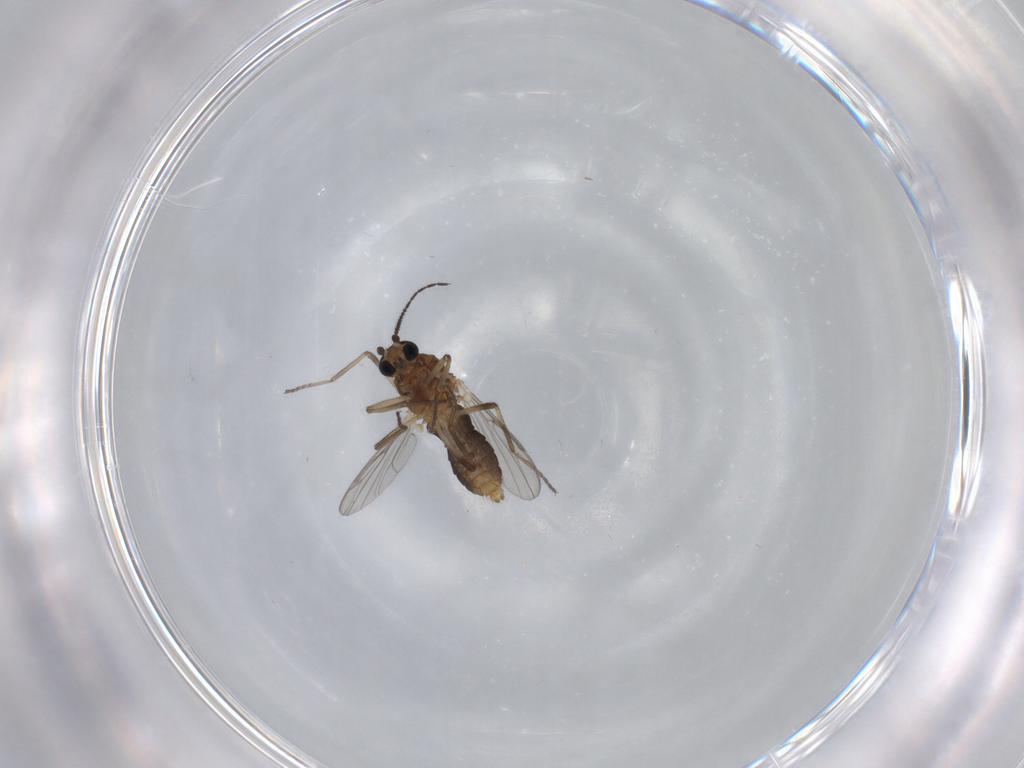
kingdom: Animalia
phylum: Arthropoda
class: Insecta
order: Diptera
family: Ceratopogonidae
